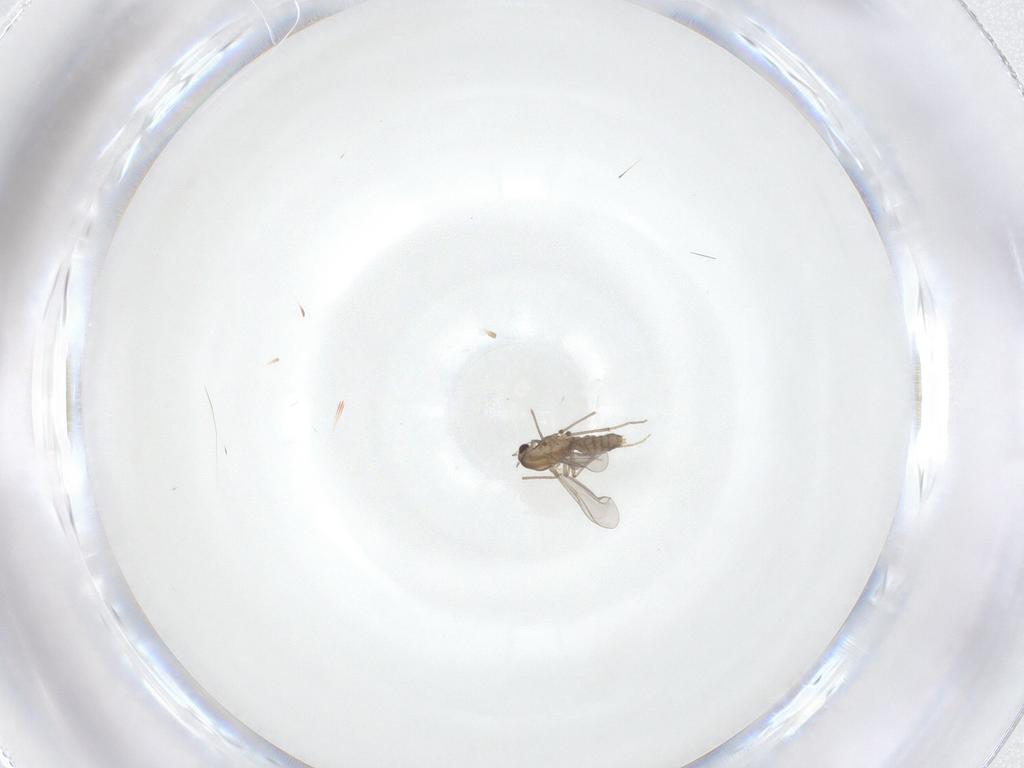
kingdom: Animalia
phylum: Arthropoda
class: Insecta
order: Diptera
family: Chironomidae
